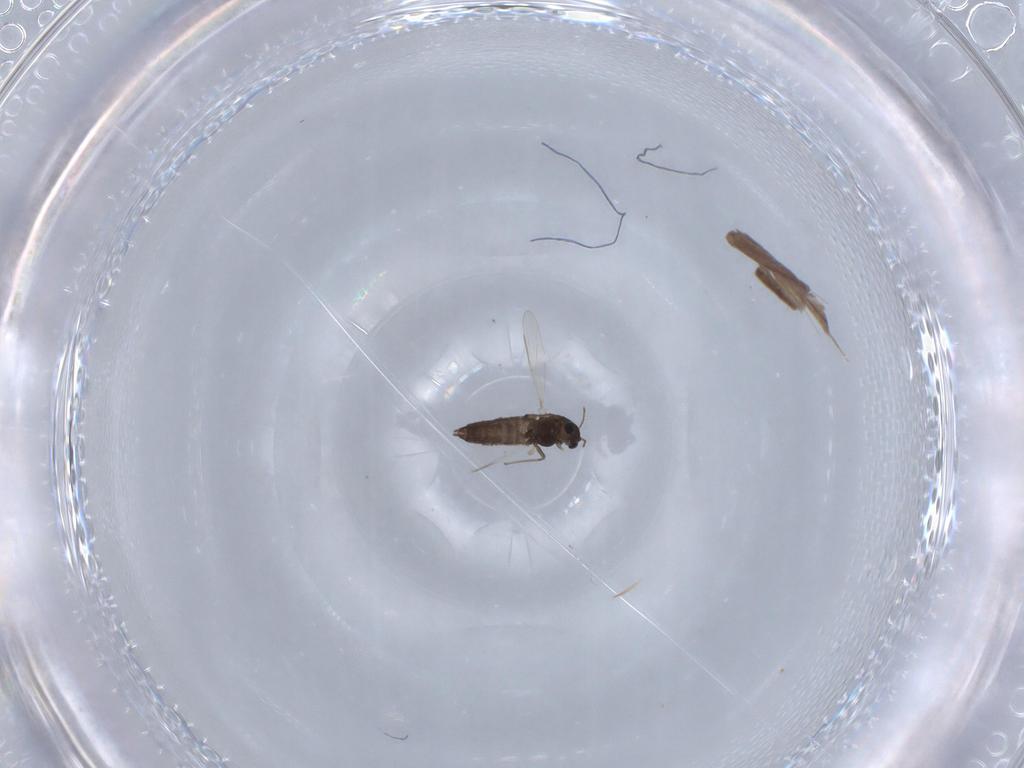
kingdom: Animalia
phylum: Arthropoda
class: Insecta
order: Diptera
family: Chironomidae
